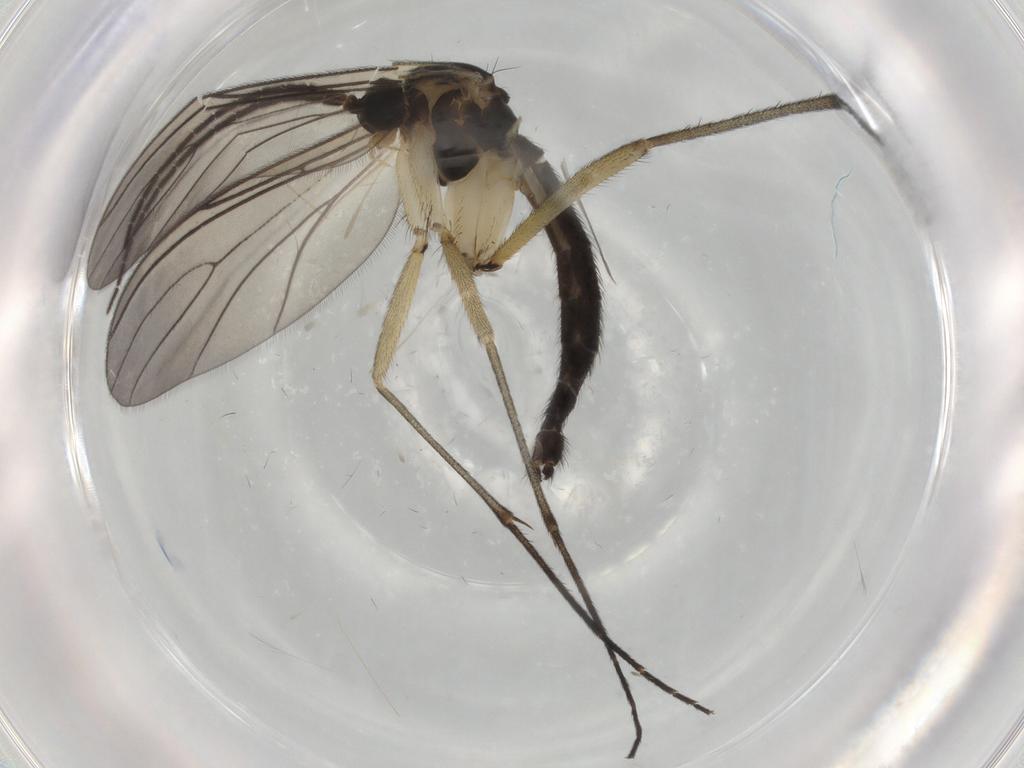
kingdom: Animalia
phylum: Arthropoda
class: Insecta
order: Diptera
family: Sciaridae
